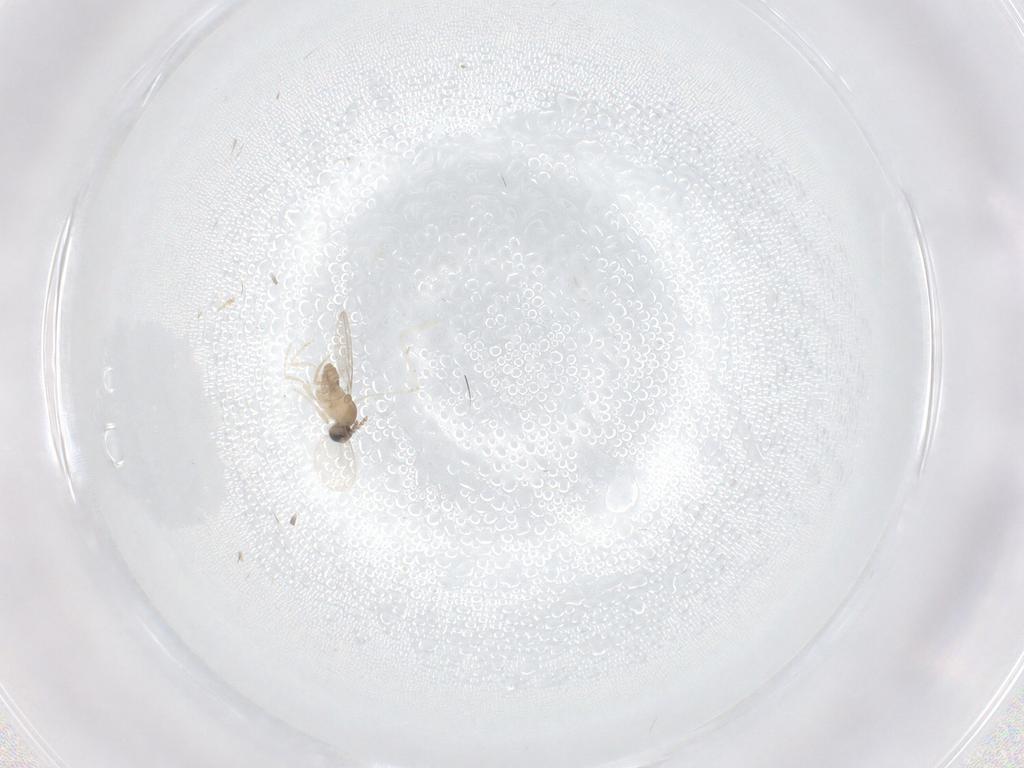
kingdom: Animalia
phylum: Arthropoda
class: Insecta
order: Diptera
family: Cecidomyiidae
